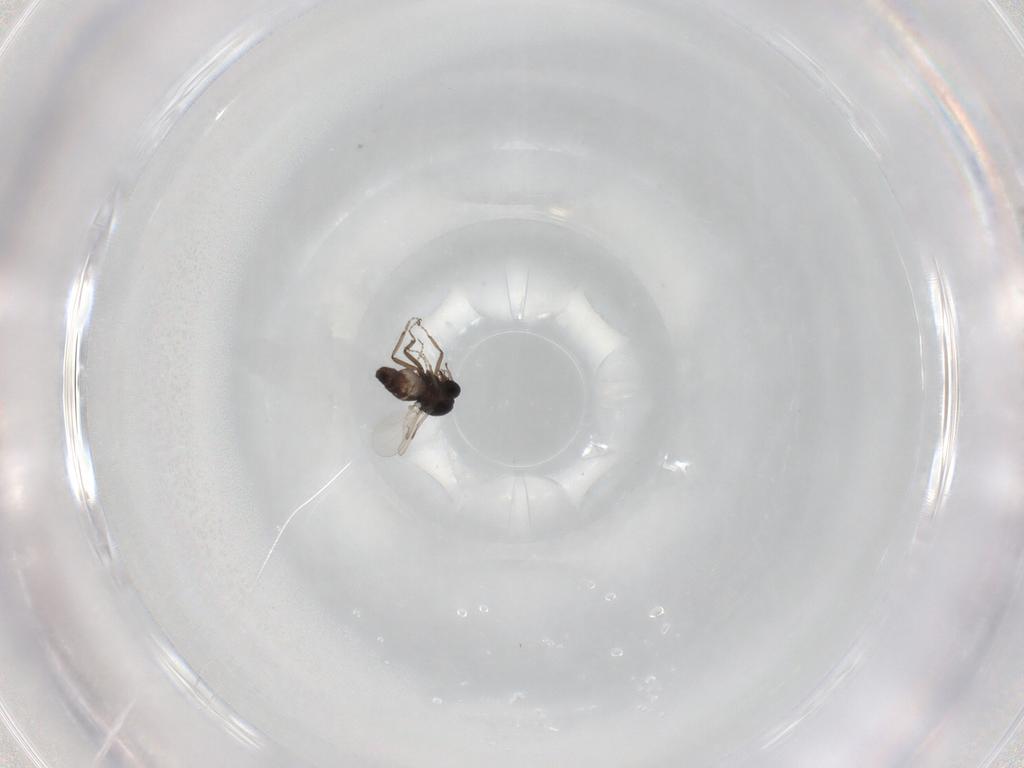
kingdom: Animalia
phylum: Arthropoda
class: Insecta
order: Diptera
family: Ceratopogonidae
